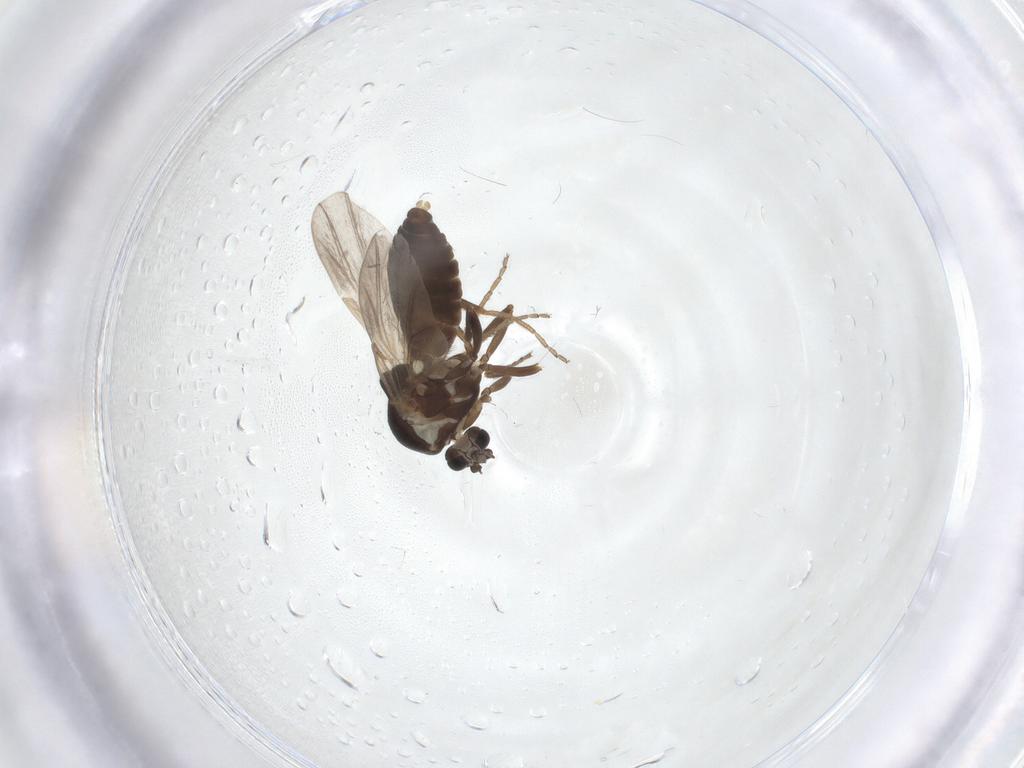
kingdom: Animalia
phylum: Arthropoda
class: Insecta
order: Diptera
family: Ceratopogonidae
